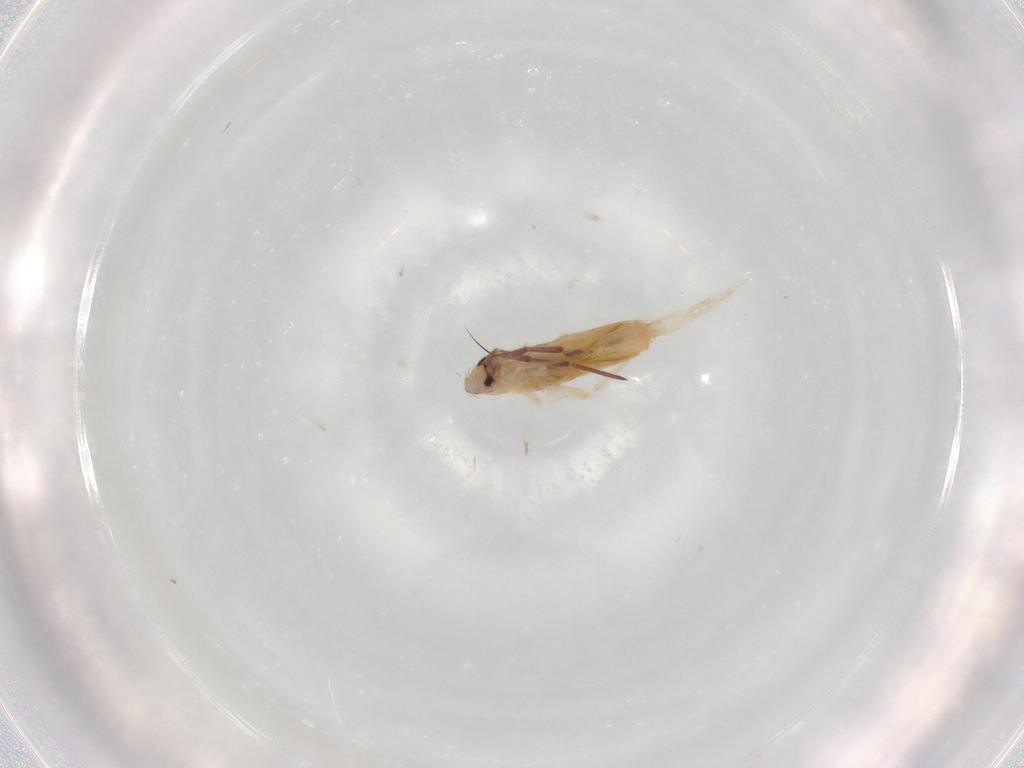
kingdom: Animalia
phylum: Arthropoda
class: Collembola
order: Entomobryomorpha
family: Entomobryidae
